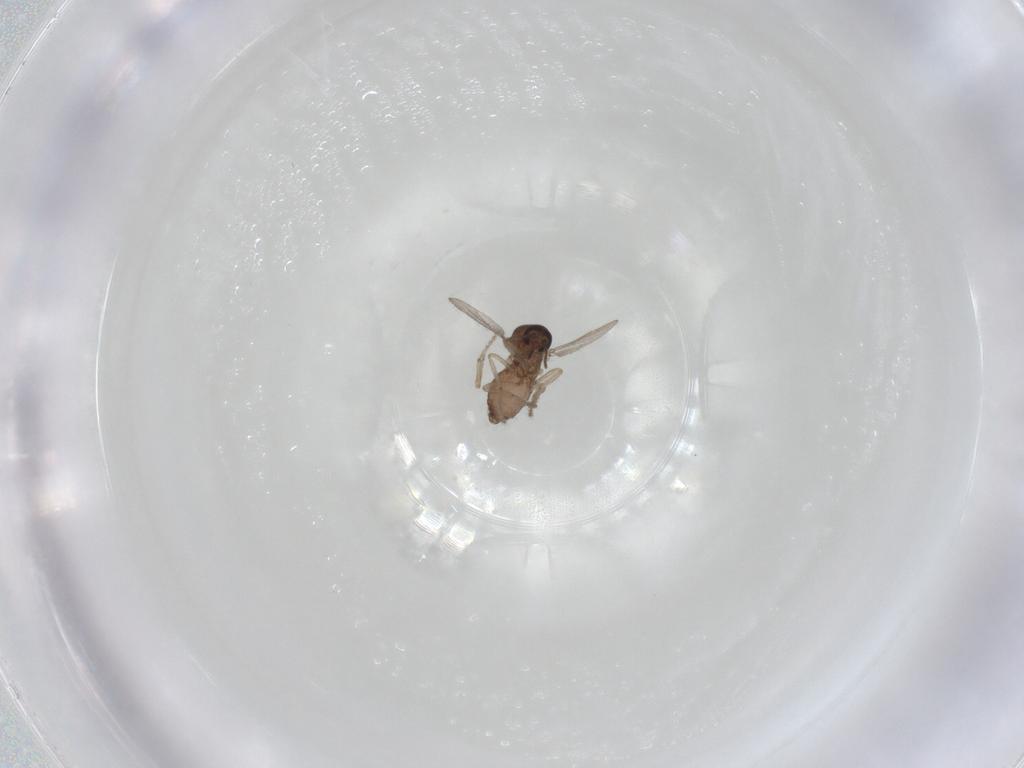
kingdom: Animalia
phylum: Arthropoda
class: Insecta
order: Diptera
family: Ceratopogonidae
